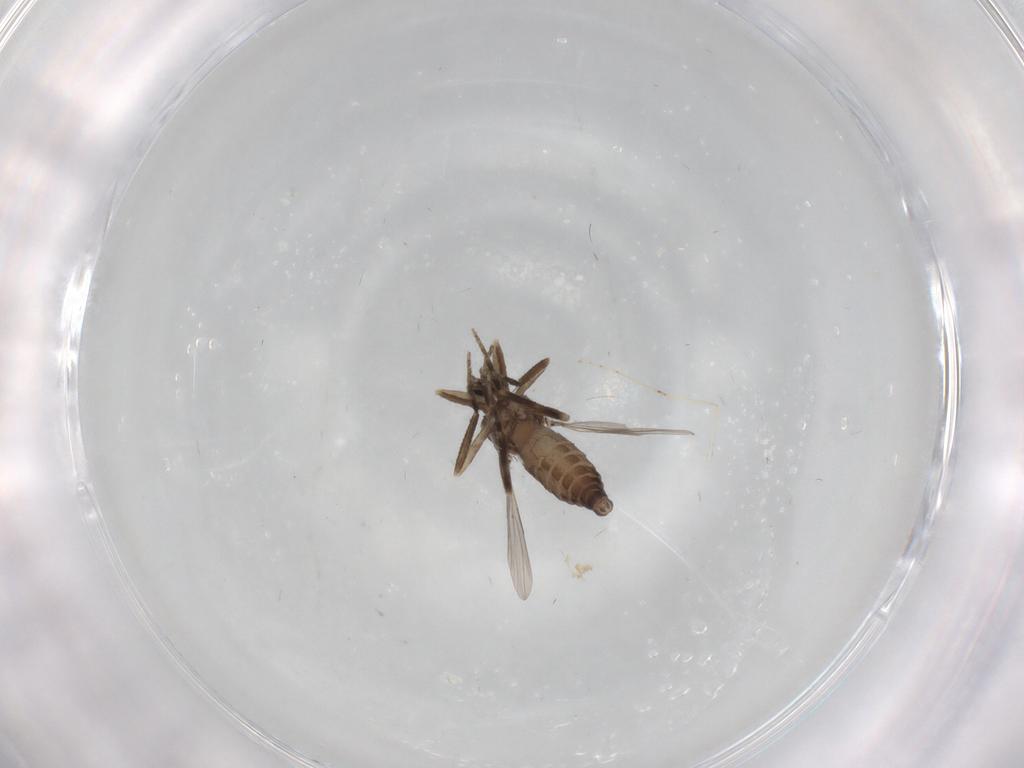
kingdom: Animalia
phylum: Arthropoda
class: Insecta
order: Diptera
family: Cecidomyiidae
